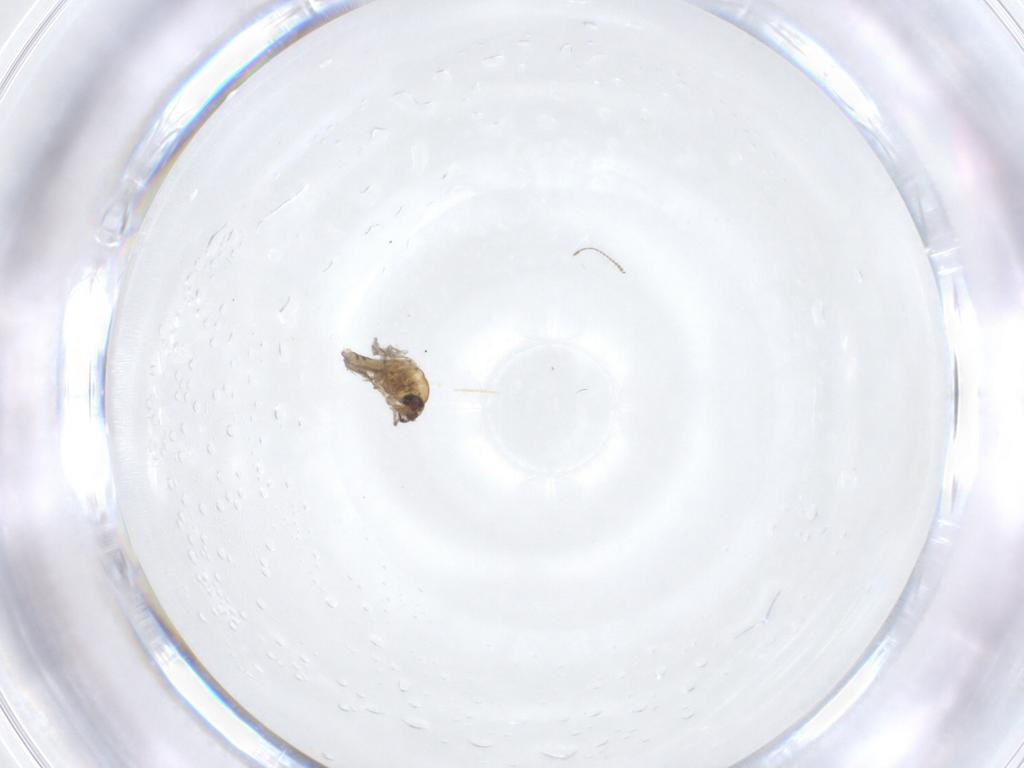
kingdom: Animalia
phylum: Arthropoda
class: Insecta
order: Diptera
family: Ceratopogonidae
